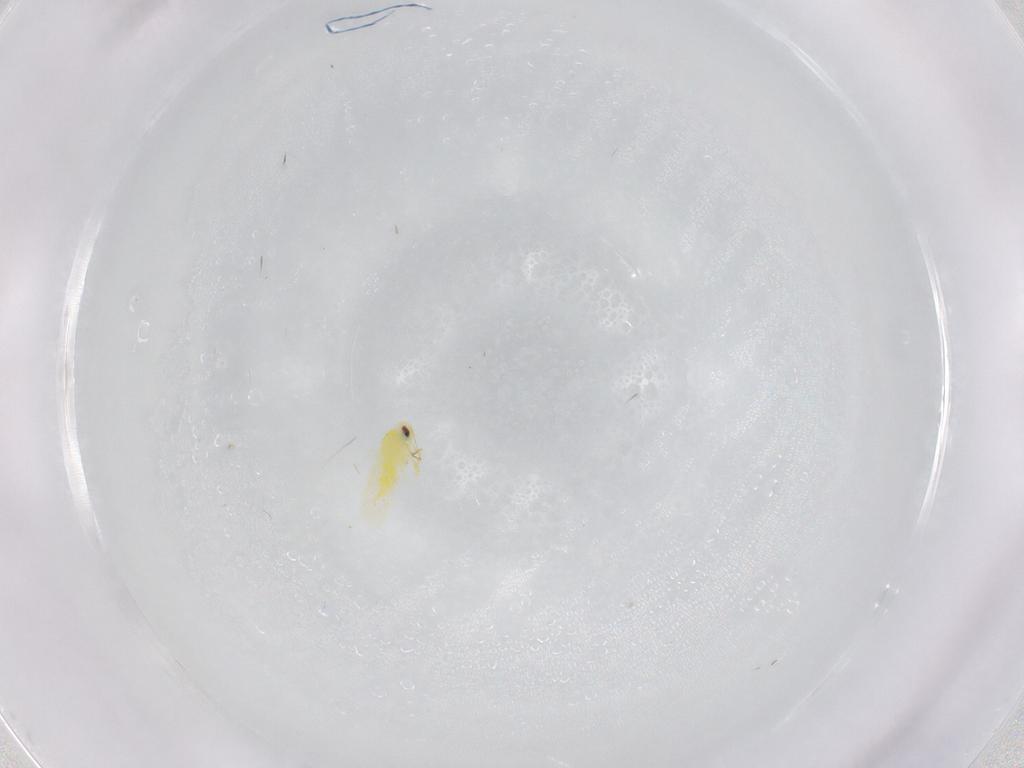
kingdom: Animalia
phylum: Arthropoda
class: Insecta
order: Hemiptera
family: Aleyrodidae
